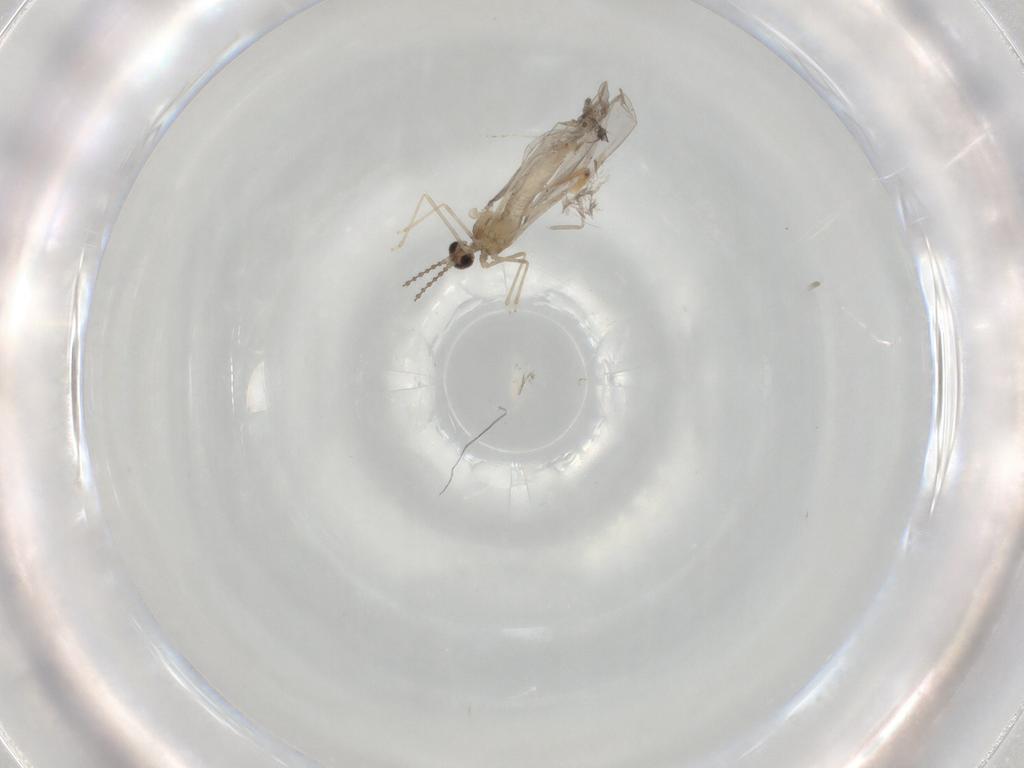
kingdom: Animalia
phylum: Arthropoda
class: Insecta
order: Diptera
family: Cecidomyiidae
